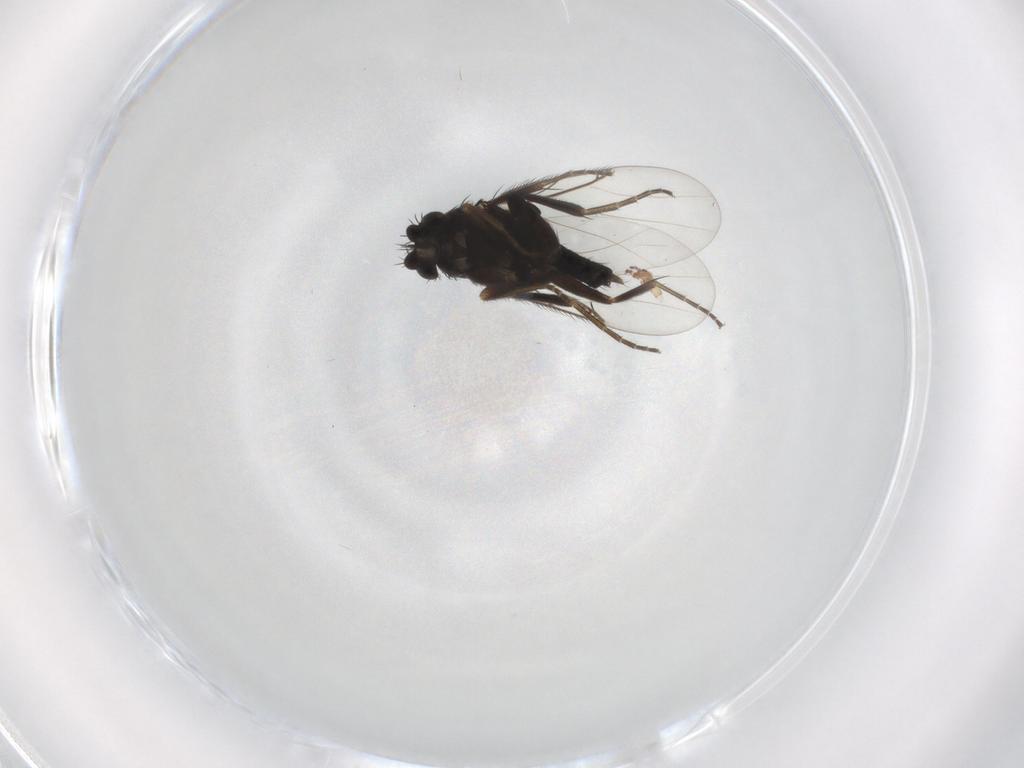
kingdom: Animalia
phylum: Arthropoda
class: Insecta
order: Diptera
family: Phoridae
